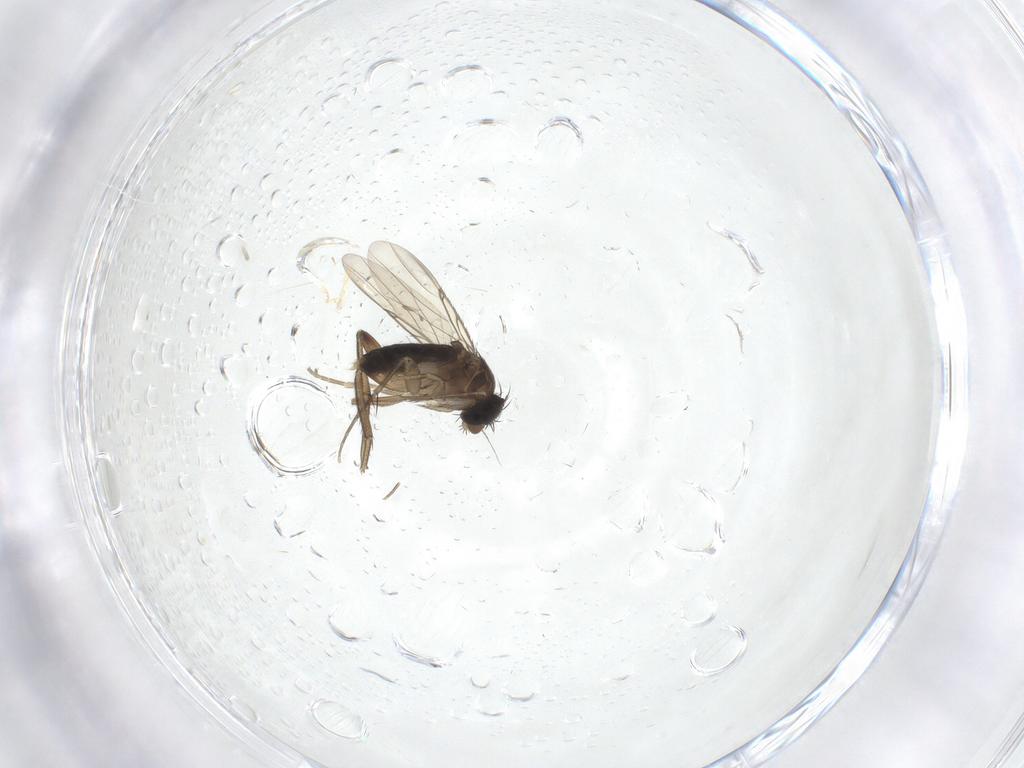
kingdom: Animalia
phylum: Arthropoda
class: Insecta
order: Diptera
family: Phoridae
